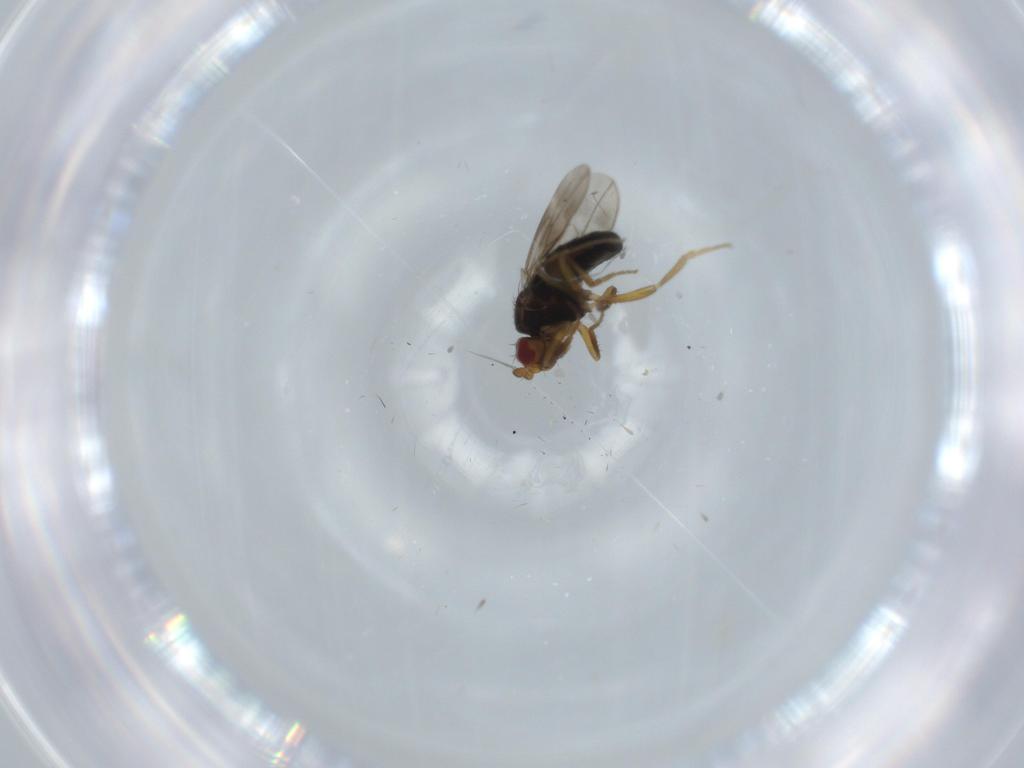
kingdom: Animalia
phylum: Arthropoda
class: Insecta
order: Diptera
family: Sphaeroceridae
